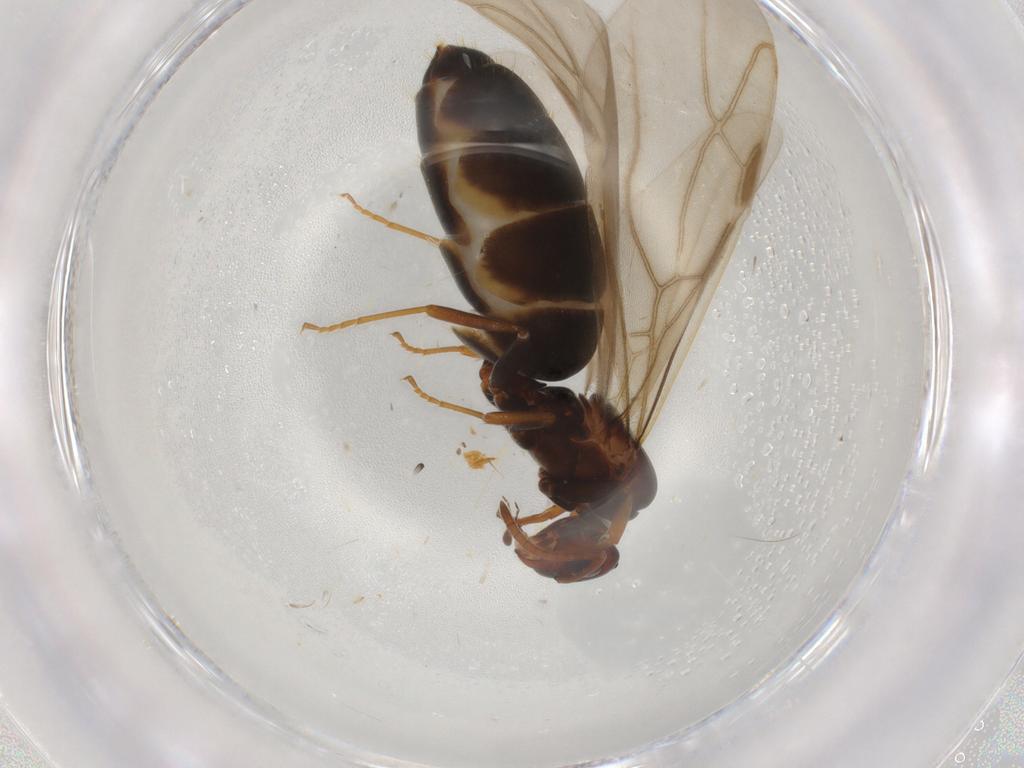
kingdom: Animalia
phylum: Arthropoda
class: Insecta
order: Hymenoptera
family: Formicidae
